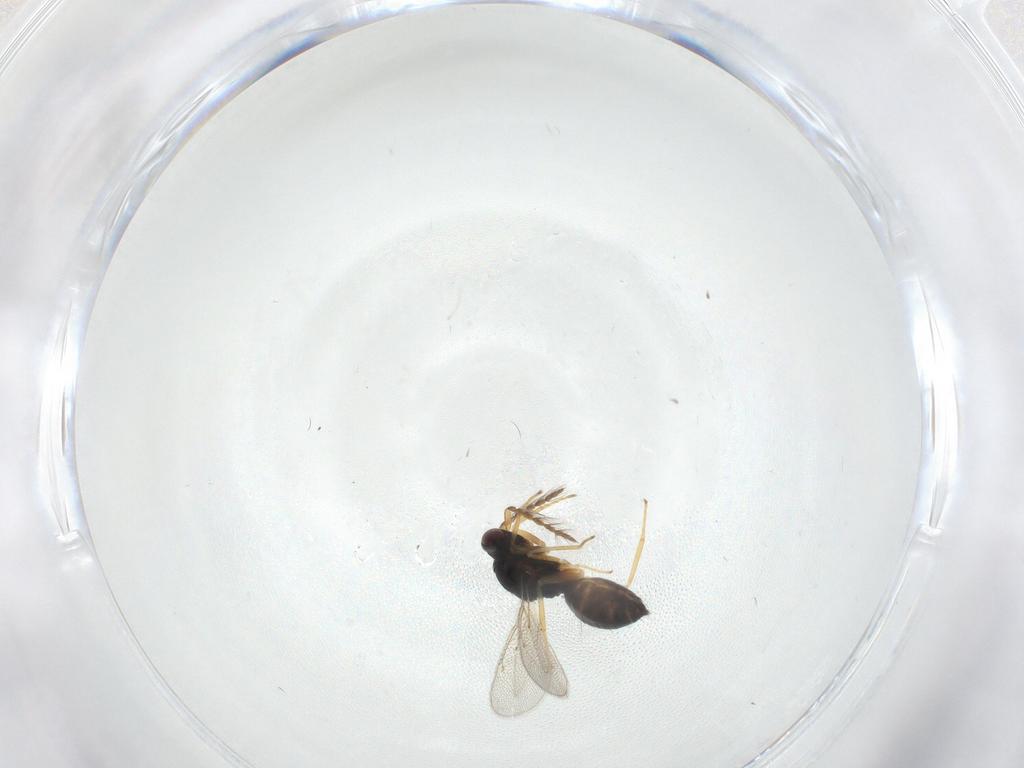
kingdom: Animalia
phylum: Arthropoda
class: Insecta
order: Hymenoptera
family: Eulophidae
